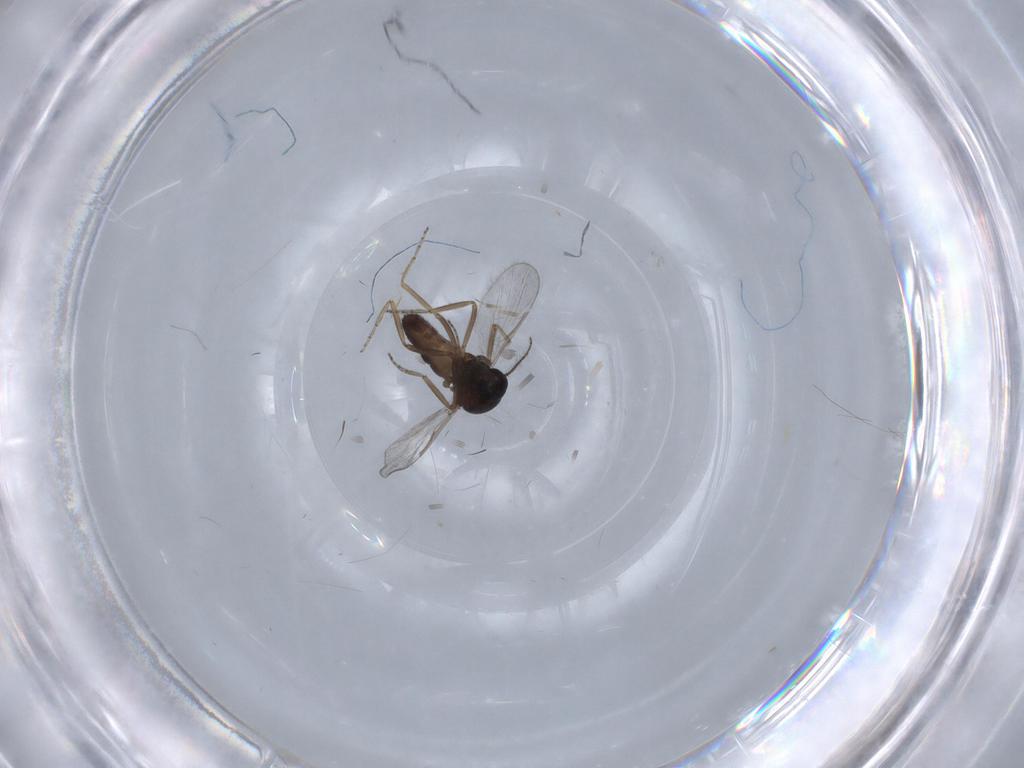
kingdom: Animalia
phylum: Arthropoda
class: Insecta
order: Diptera
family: Ceratopogonidae
